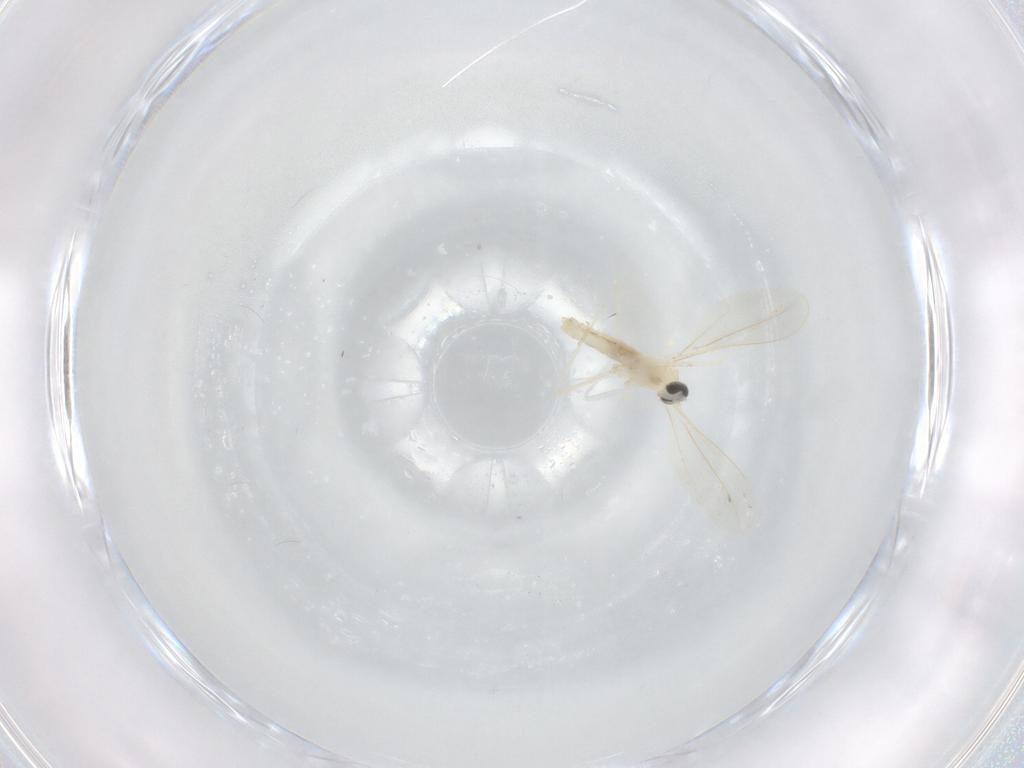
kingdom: Animalia
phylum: Arthropoda
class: Insecta
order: Diptera
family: Cecidomyiidae
